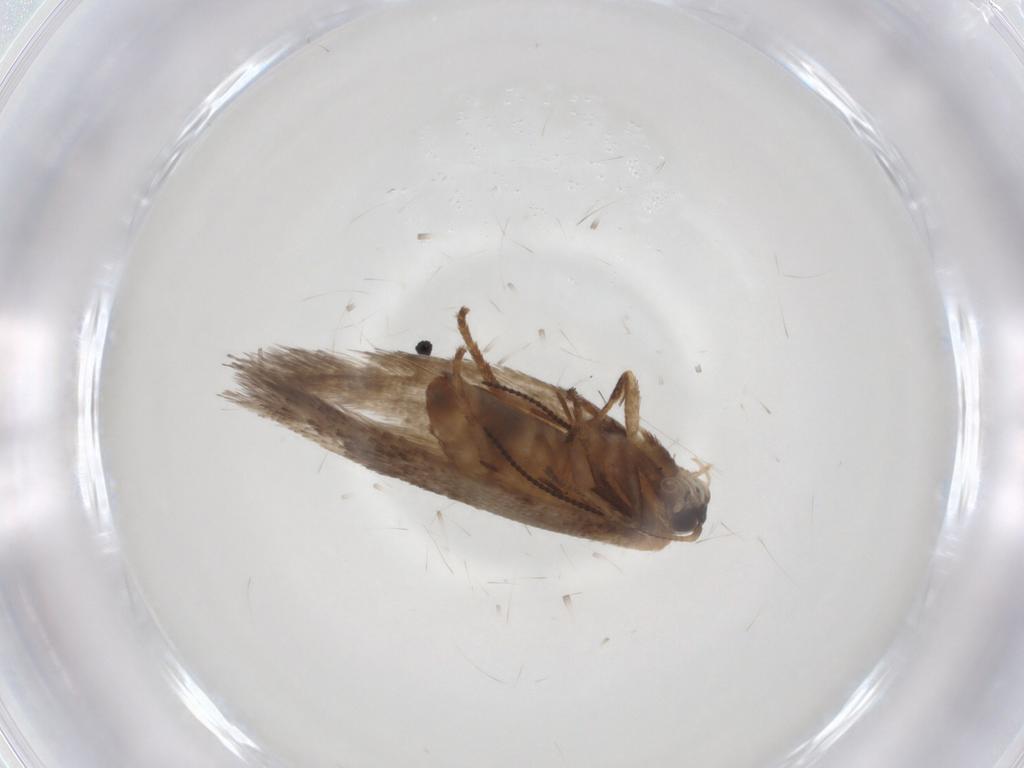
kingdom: Animalia
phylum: Arthropoda
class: Insecta
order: Lepidoptera
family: Nepticulidae
